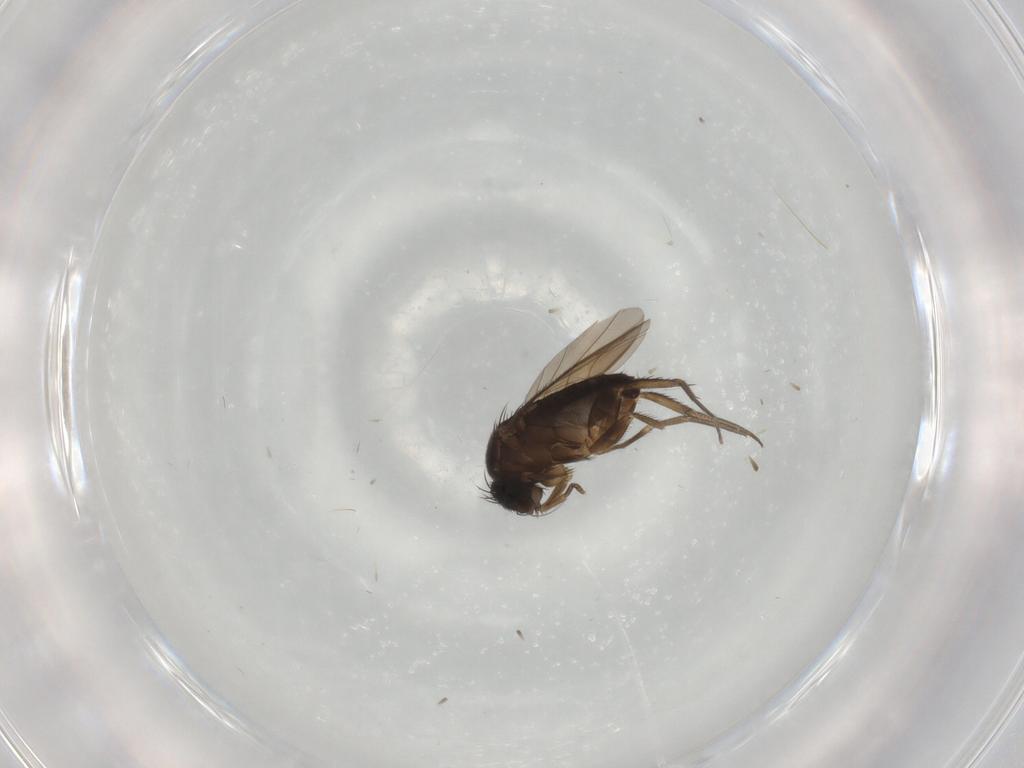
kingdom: Animalia
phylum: Arthropoda
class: Insecta
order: Diptera
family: Phoridae
